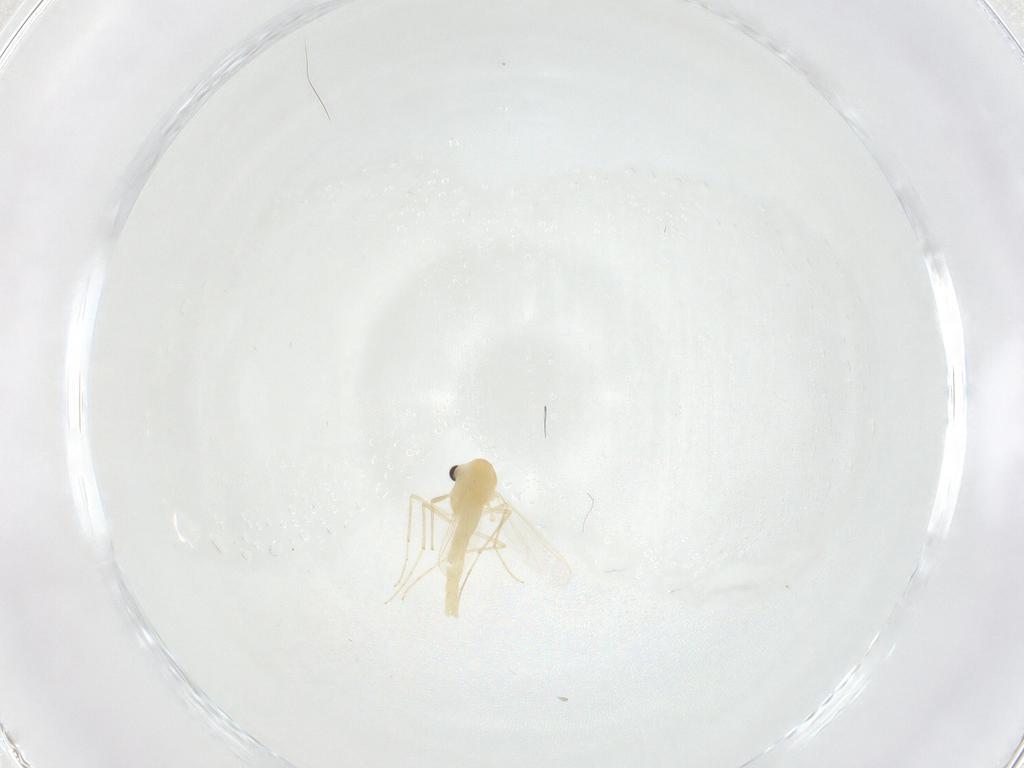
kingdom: Animalia
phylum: Arthropoda
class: Insecta
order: Diptera
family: Chironomidae
